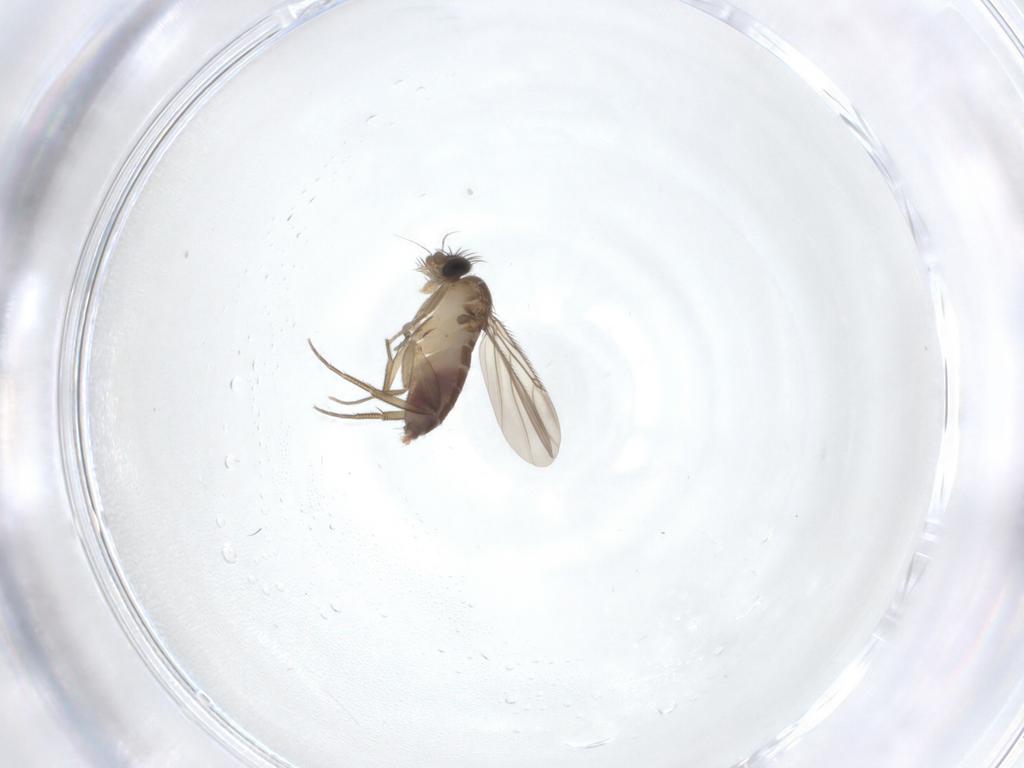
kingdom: Animalia
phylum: Arthropoda
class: Insecta
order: Diptera
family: Phoridae
